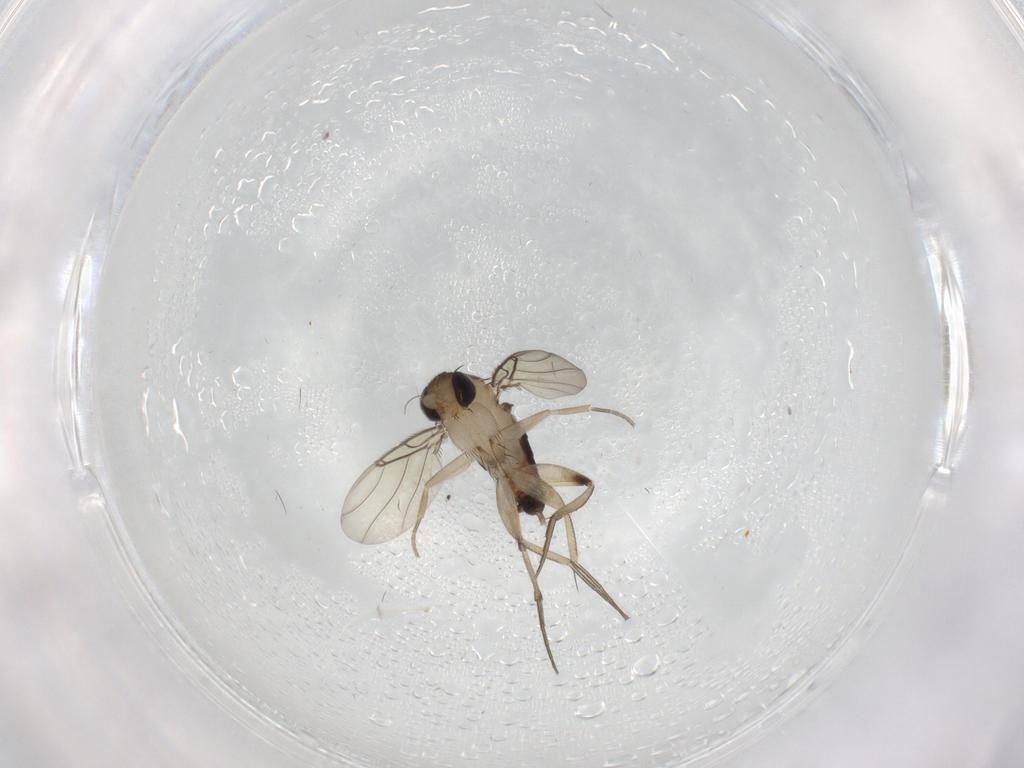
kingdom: Animalia
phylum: Arthropoda
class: Insecta
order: Diptera
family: Phoridae
